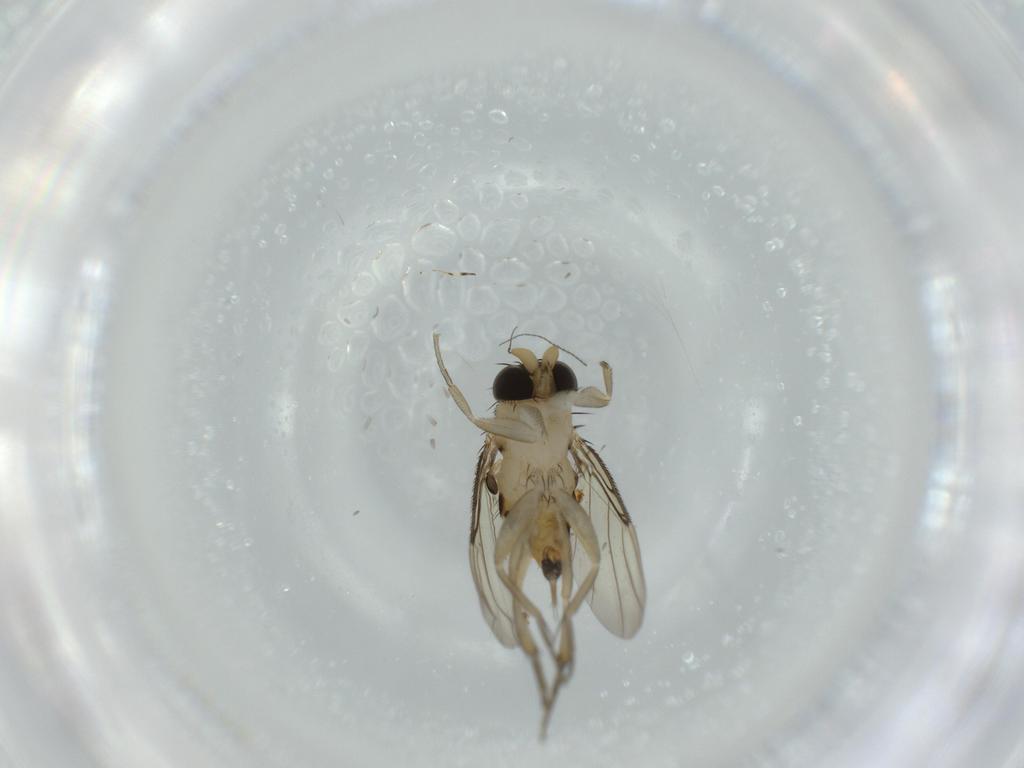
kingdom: Animalia
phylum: Arthropoda
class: Insecta
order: Diptera
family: Phoridae
